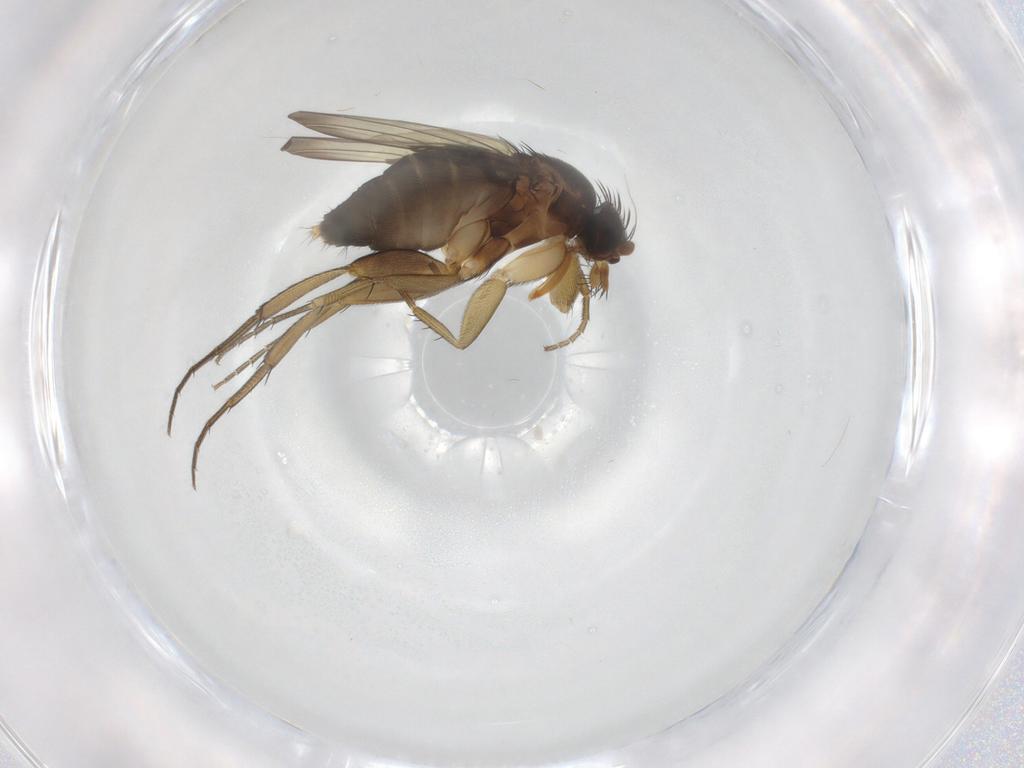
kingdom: Animalia
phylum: Arthropoda
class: Insecta
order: Diptera
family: Phoridae
